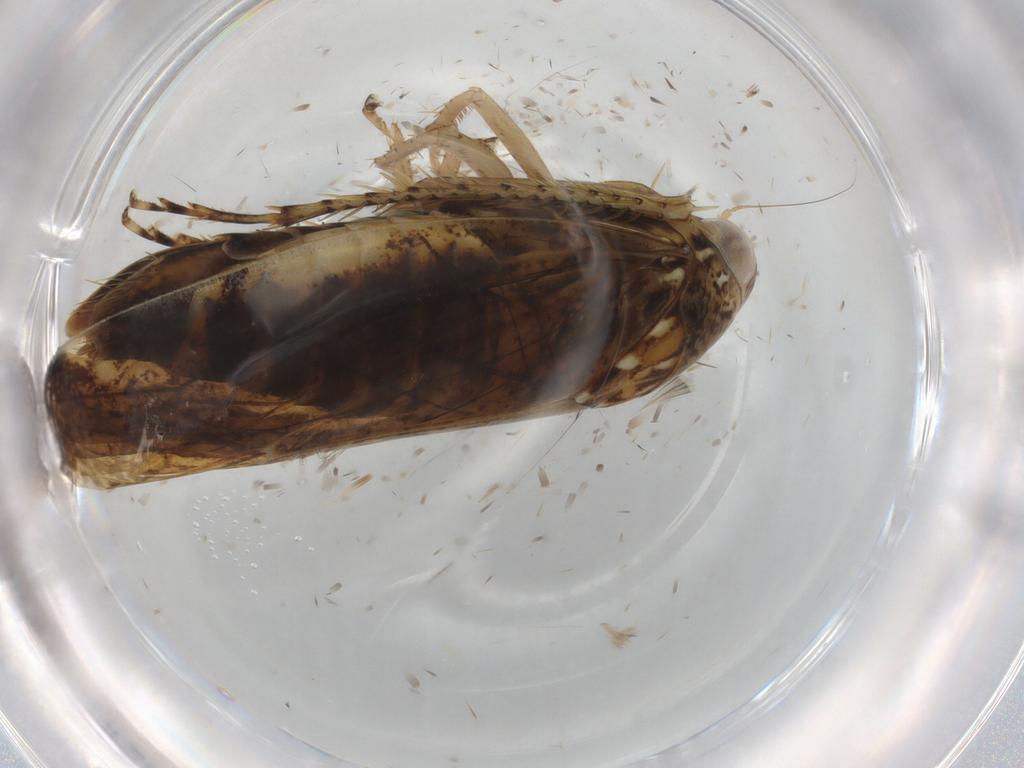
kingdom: Animalia
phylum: Arthropoda
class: Insecta
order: Hemiptera
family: Cicadellidae
